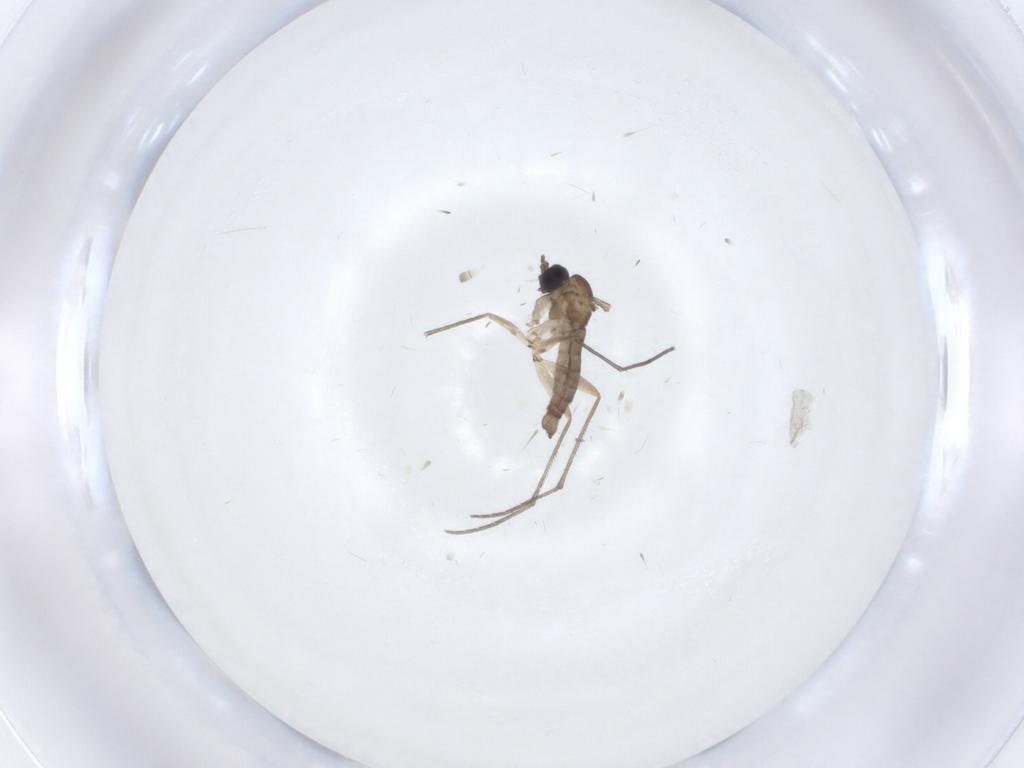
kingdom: Animalia
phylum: Arthropoda
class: Insecta
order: Diptera
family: Sciaridae
